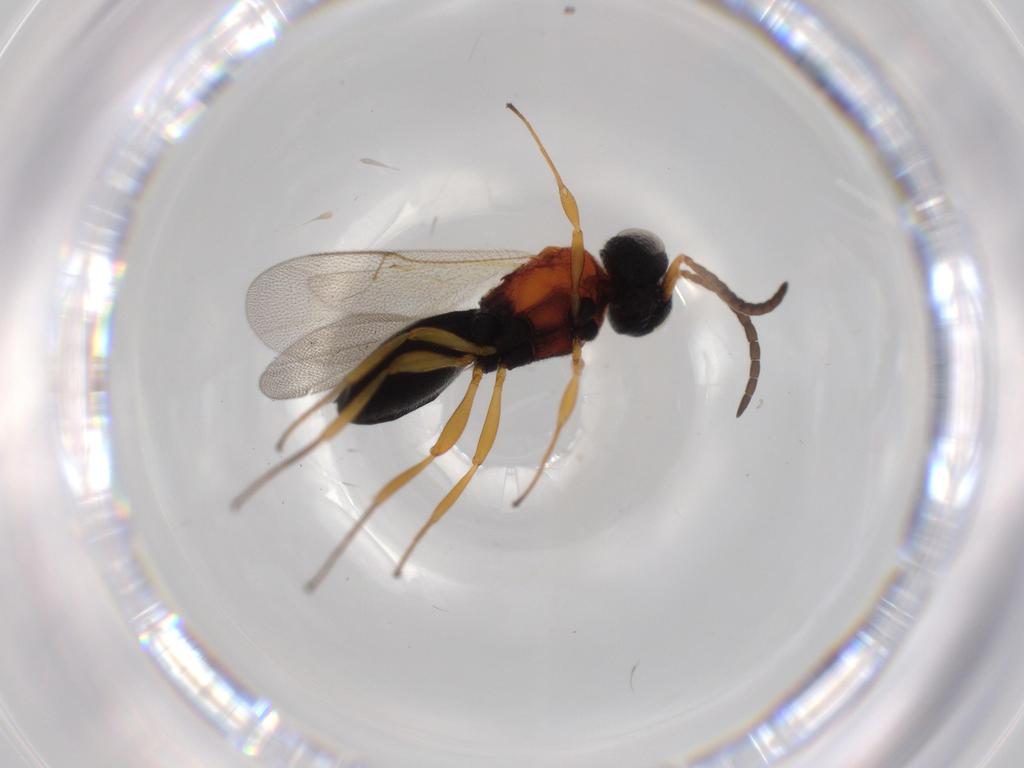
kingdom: Animalia
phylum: Arthropoda
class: Insecta
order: Hymenoptera
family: Scelionidae
